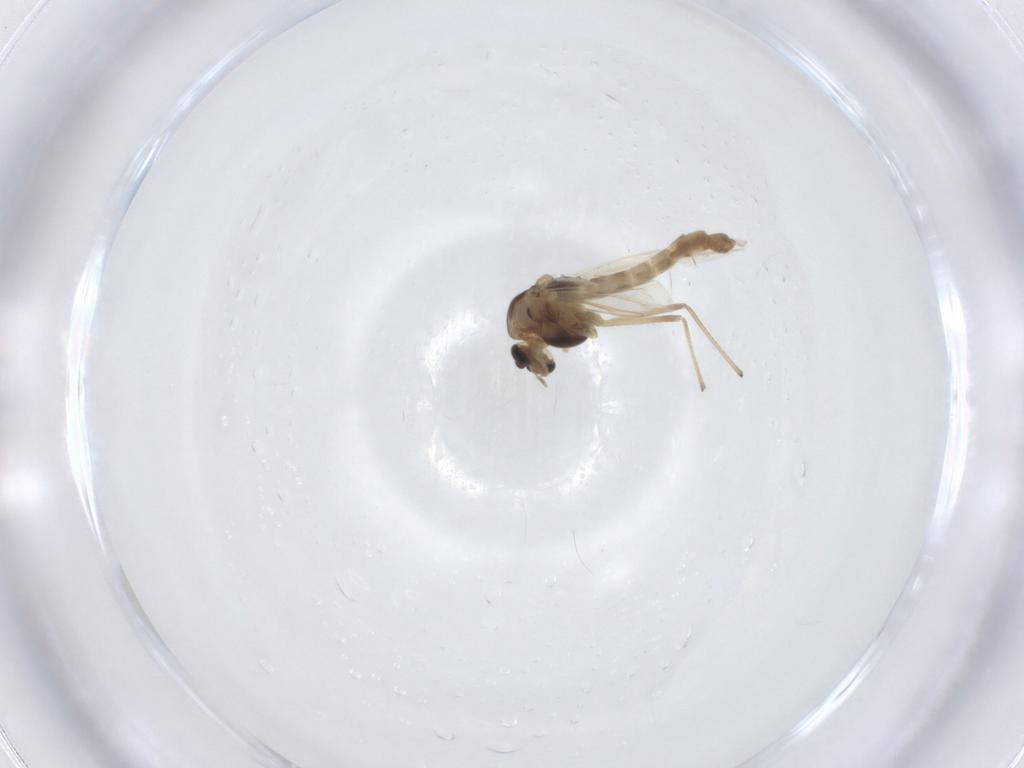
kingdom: Animalia
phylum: Arthropoda
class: Insecta
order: Diptera
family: Chironomidae
